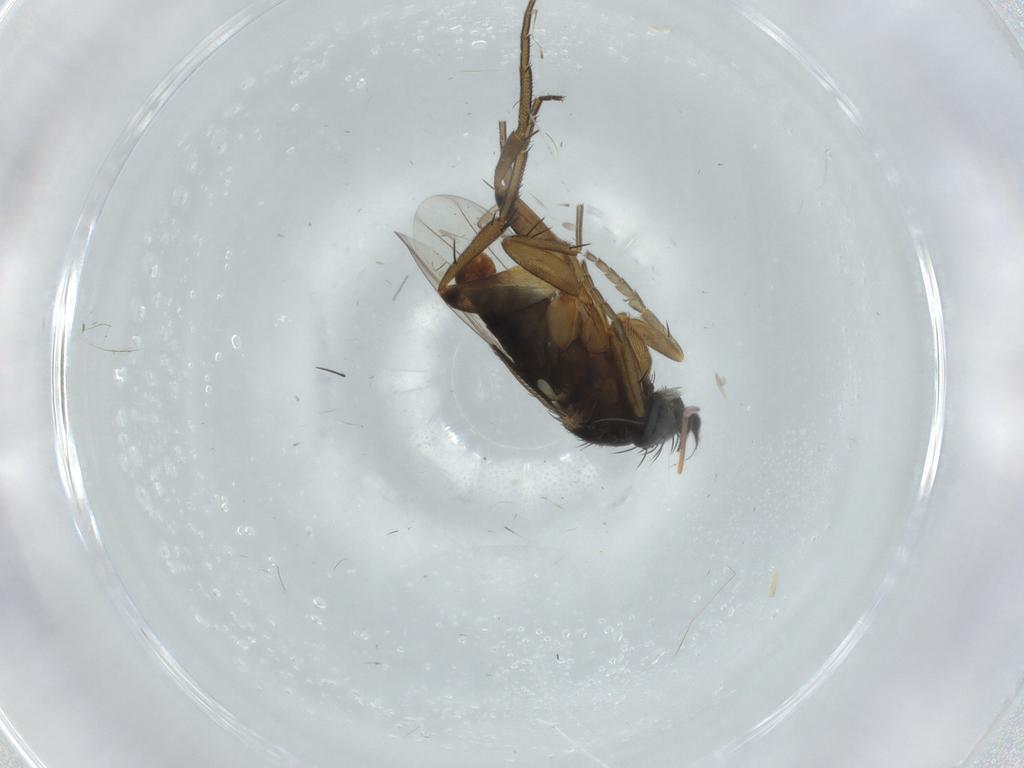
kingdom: Animalia
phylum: Arthropoda
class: Insecta
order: Diptera
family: Phoridae
